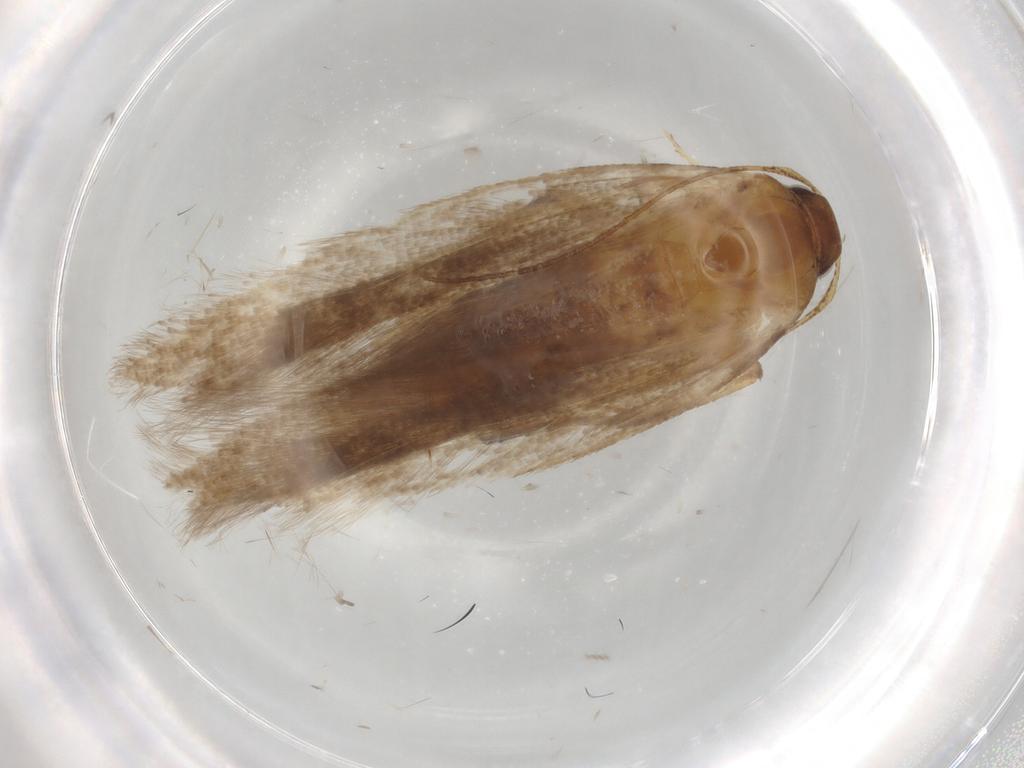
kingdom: Animalia
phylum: Arthropoda
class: Insecta
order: Lepidoptera
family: Gelechiidae
